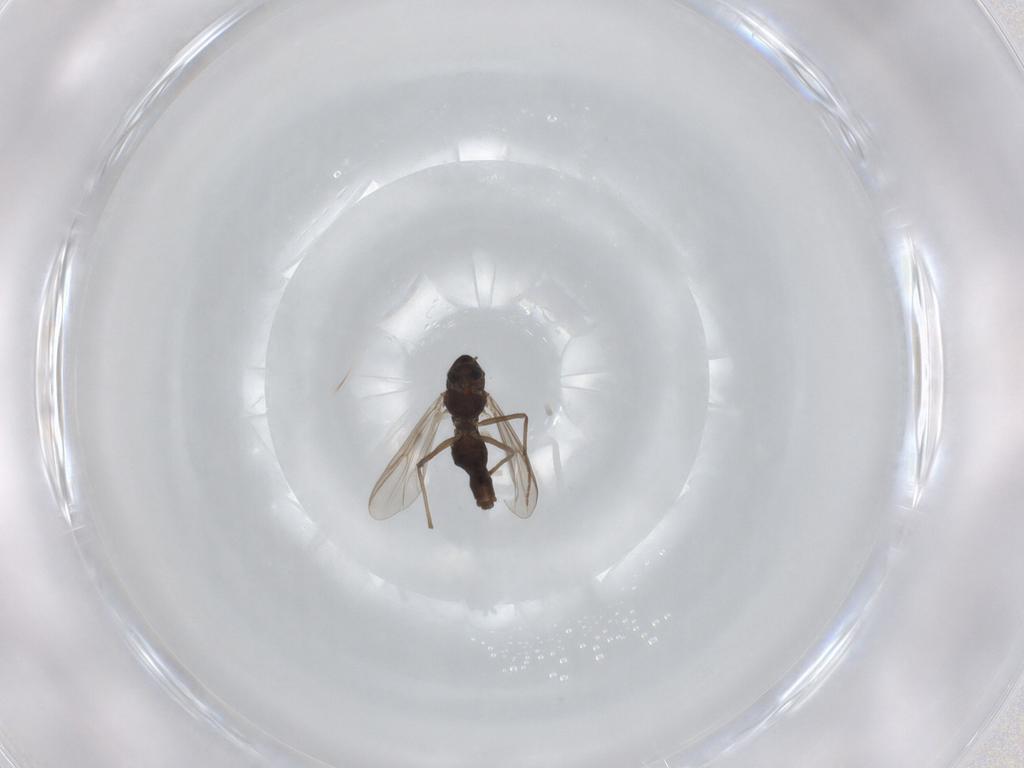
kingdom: Animalia
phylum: Arthropoda
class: Insecta
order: Diptera
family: Chironomidae
